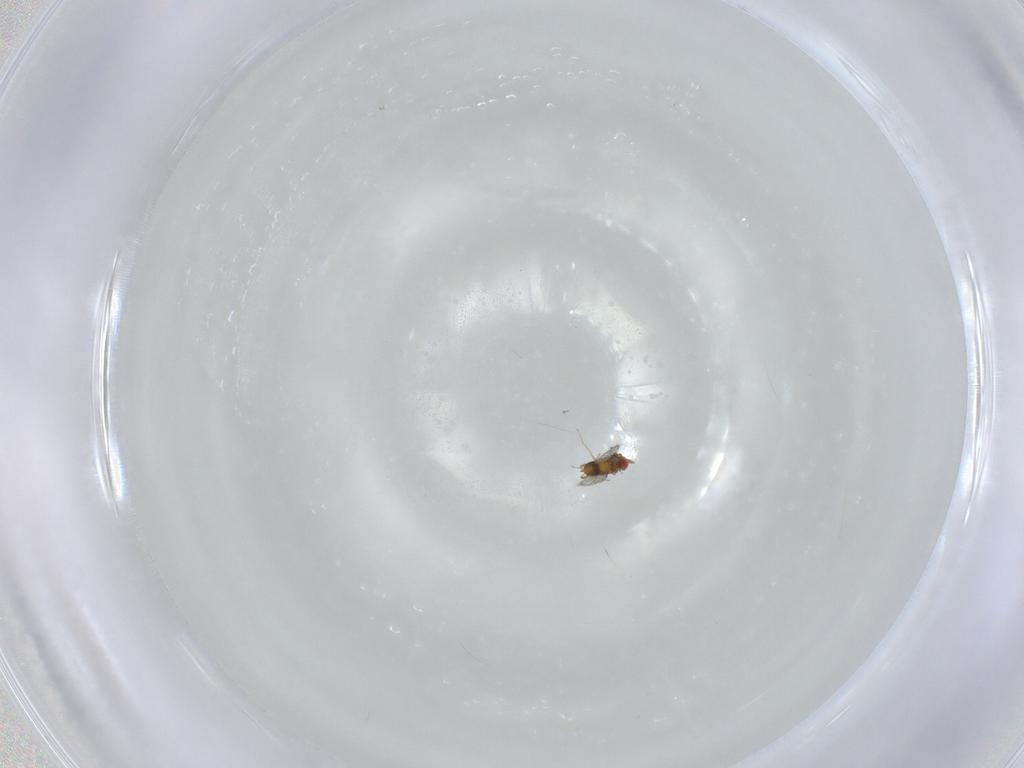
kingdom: Animalia
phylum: Arthropoda
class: Insecta
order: Hymenoptera
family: Trichogrammatidae
